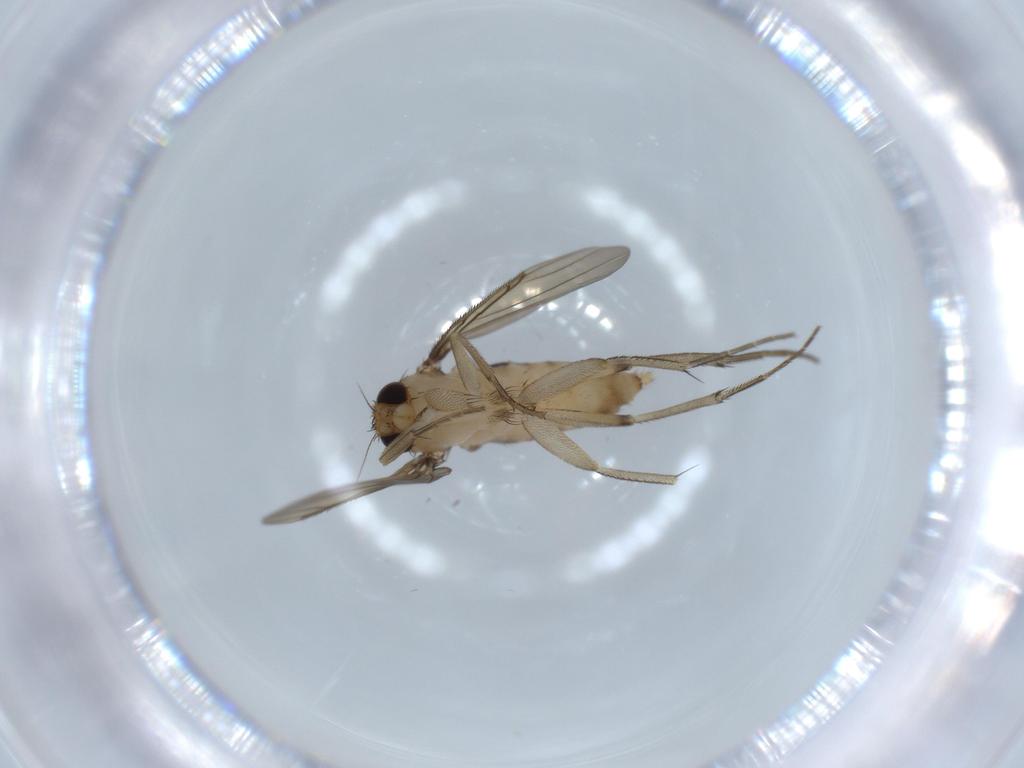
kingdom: Animalia
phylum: Arthropoda
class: Insecta
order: Diptera
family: Phoridae
